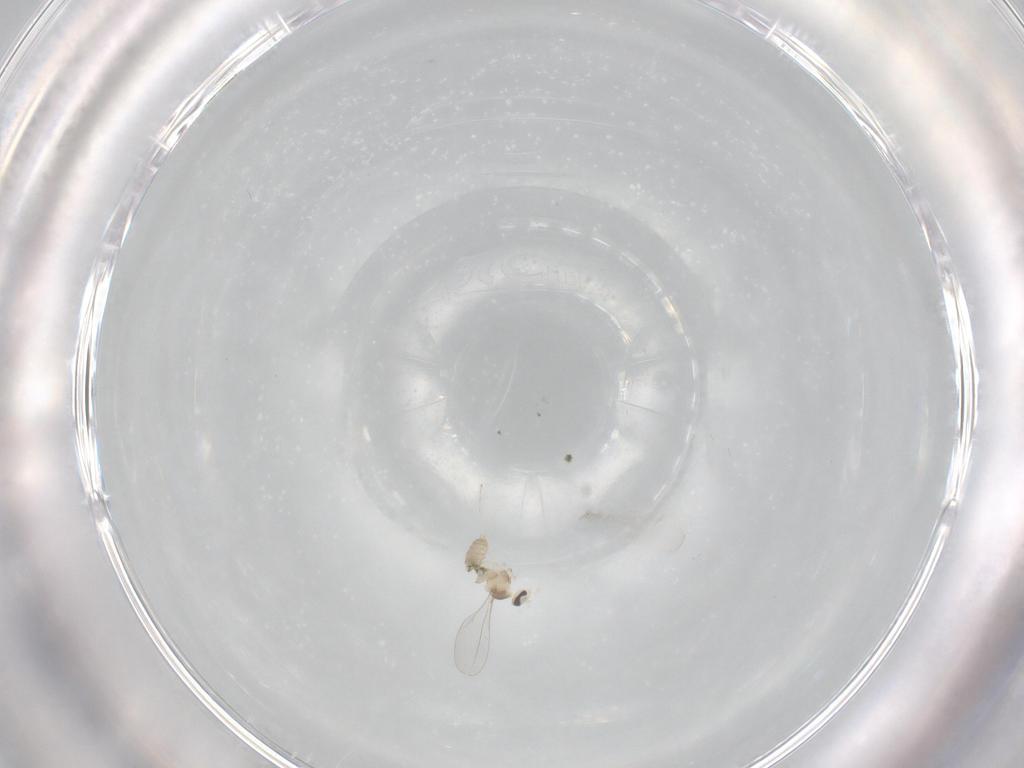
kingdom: Animalia
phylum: Arthropoda
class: Insecta
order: Diptera
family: Cecidomyiidae
